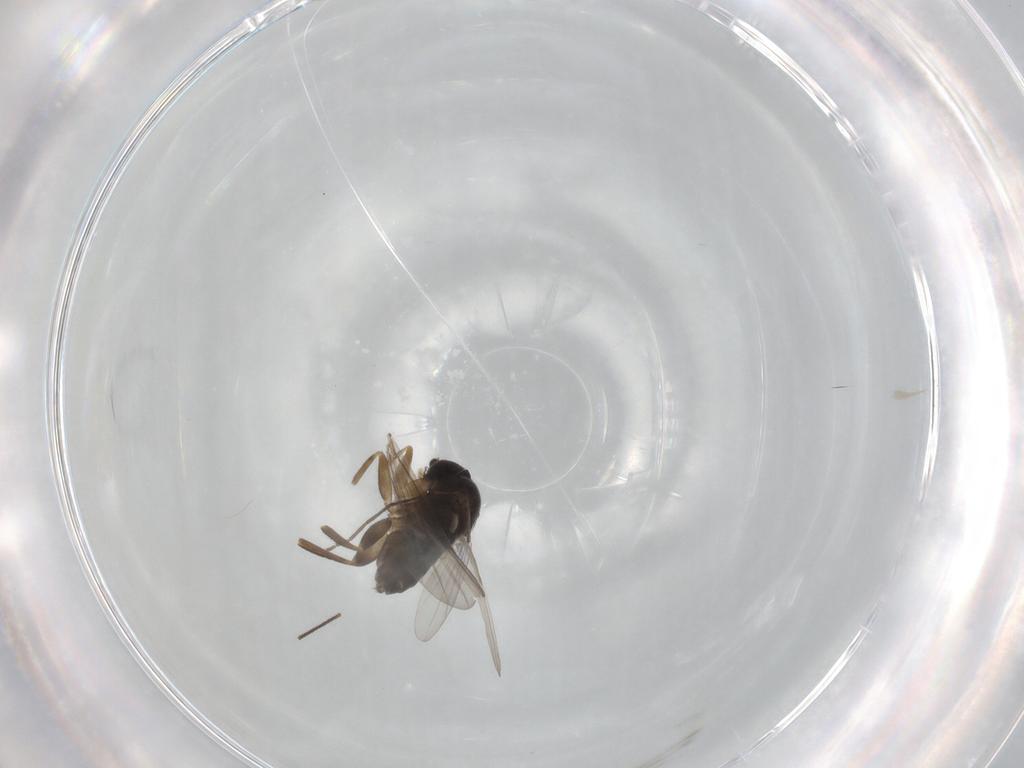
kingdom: Animalia
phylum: Arthropoda
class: Insecta
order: Diptera
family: Phoridae
